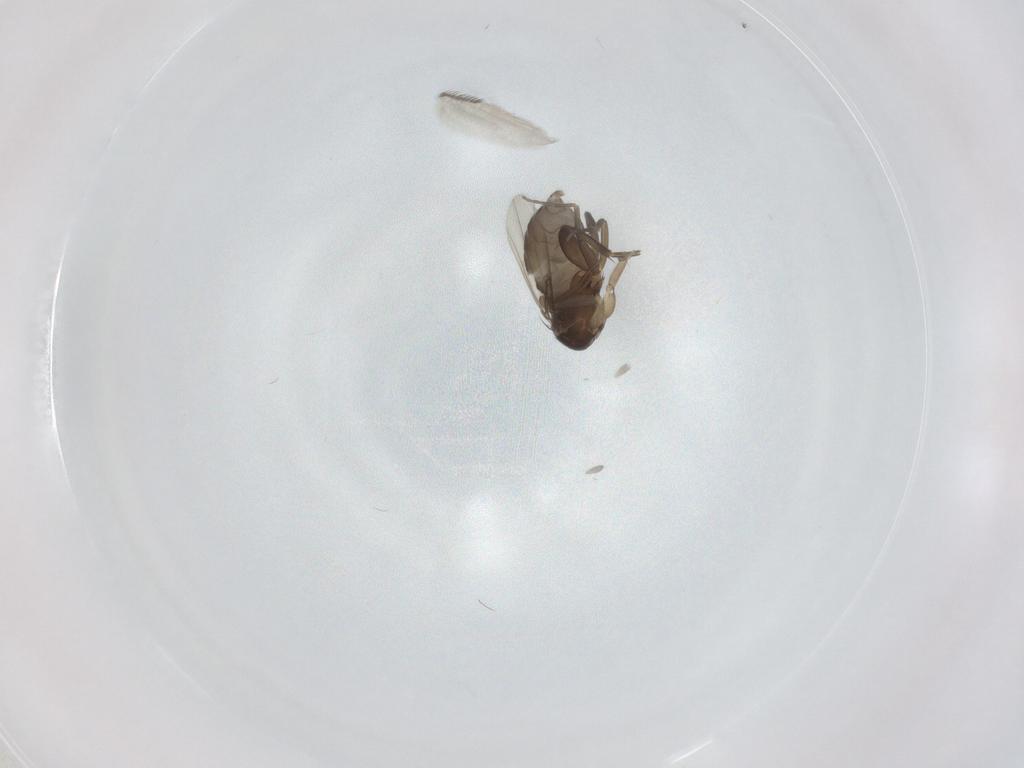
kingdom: Animalia
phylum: Arthropoda
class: Insecta
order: Diptera
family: Phoridae
